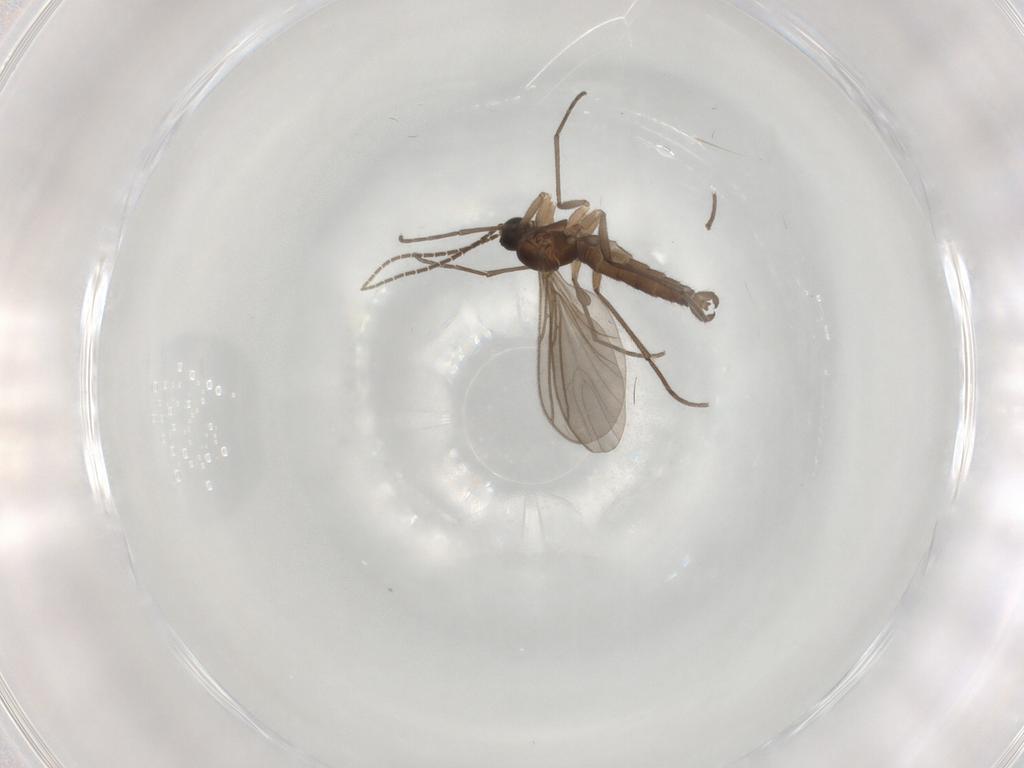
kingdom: Animalia
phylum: Arthropoda
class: Insecta
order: Diptera
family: Sciaridae
